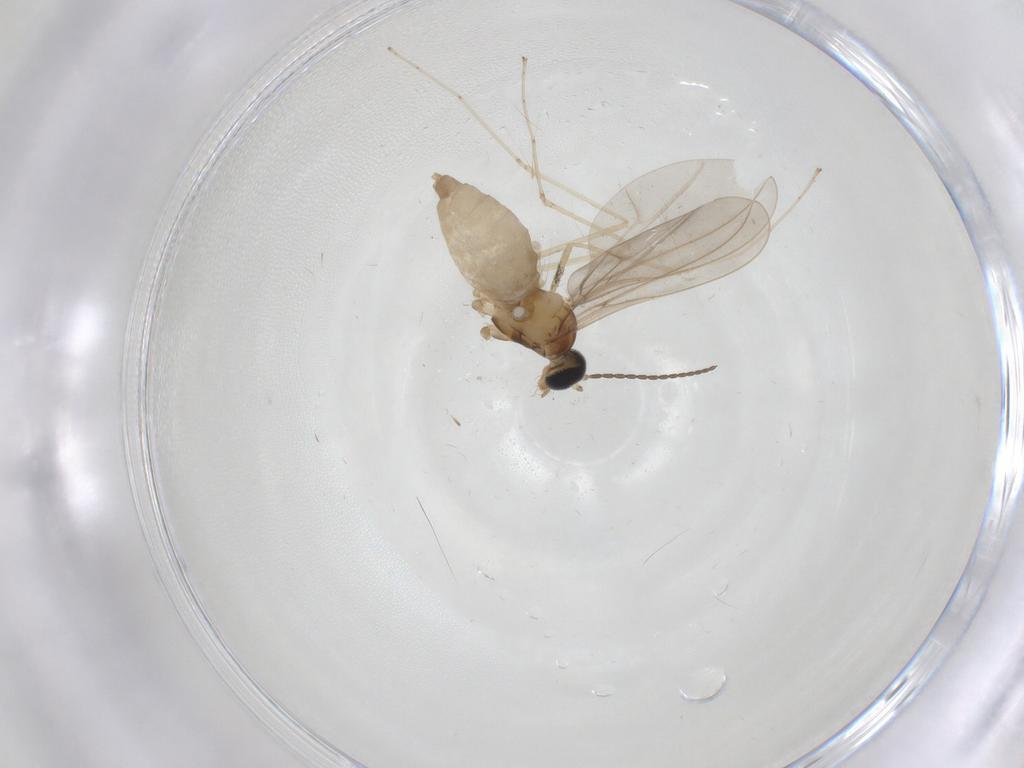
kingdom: Animalia
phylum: Arthropoda
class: Insecta
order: Diptera
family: Cecidomyiidae
